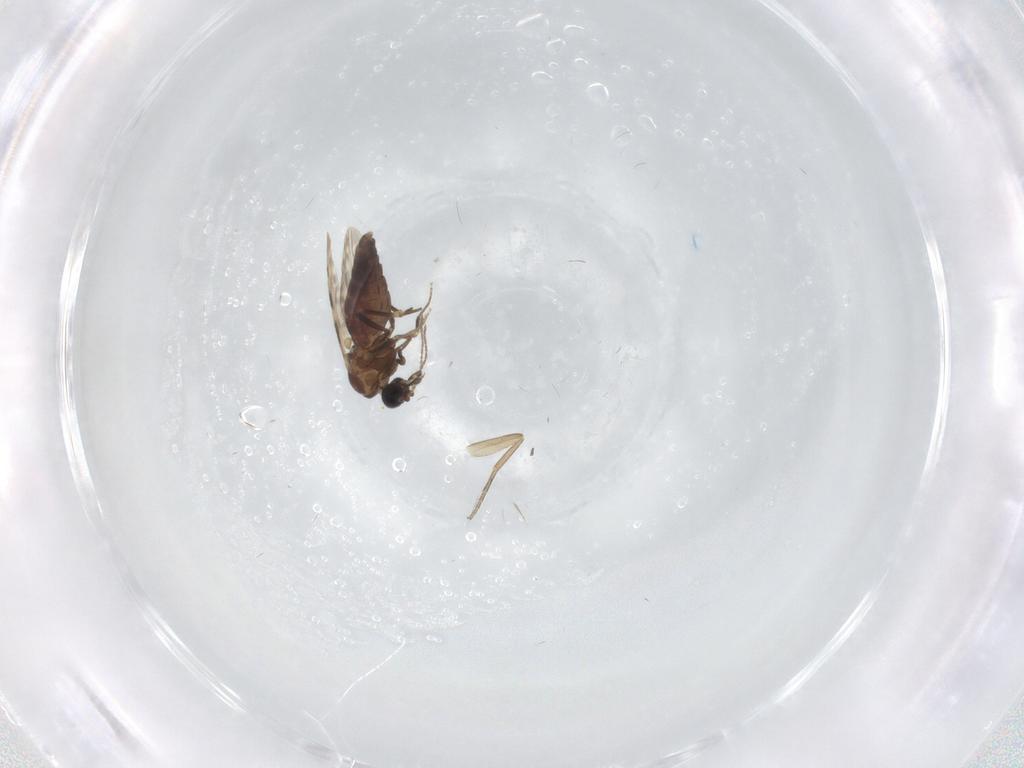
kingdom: Animalia
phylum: Arthropoda
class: Insecta
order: Diptera
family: Ceratopogonidae
